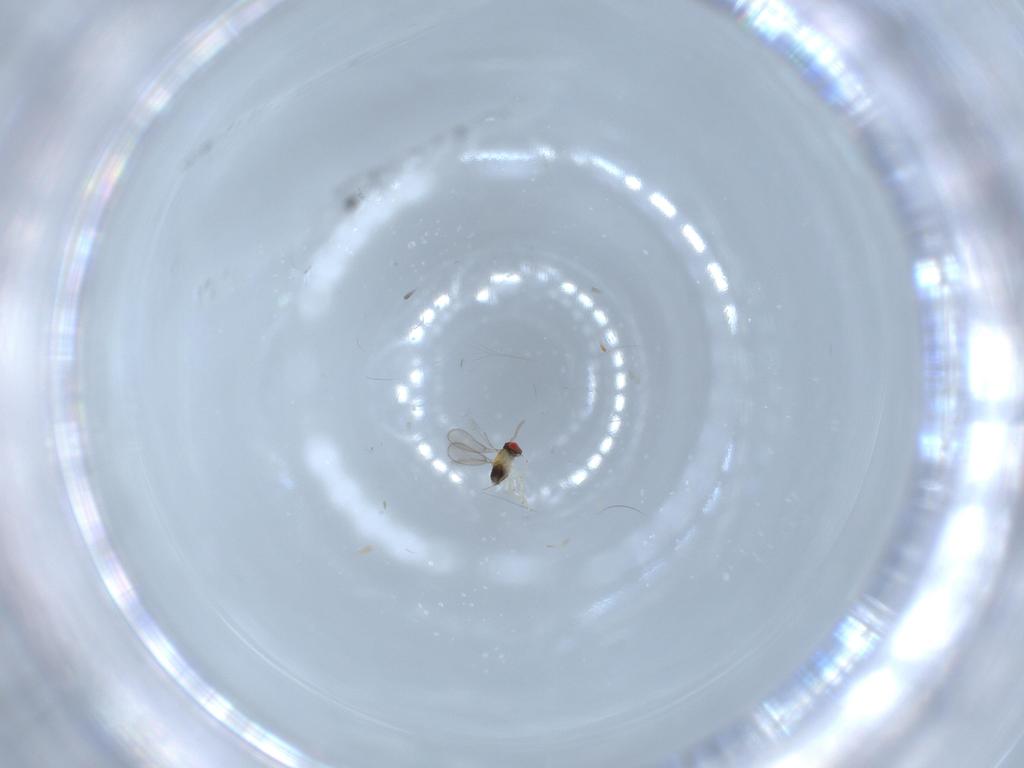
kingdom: Animalia
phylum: Arthropoda
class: Insecta
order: Hymenoptera
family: Aphelinidae
